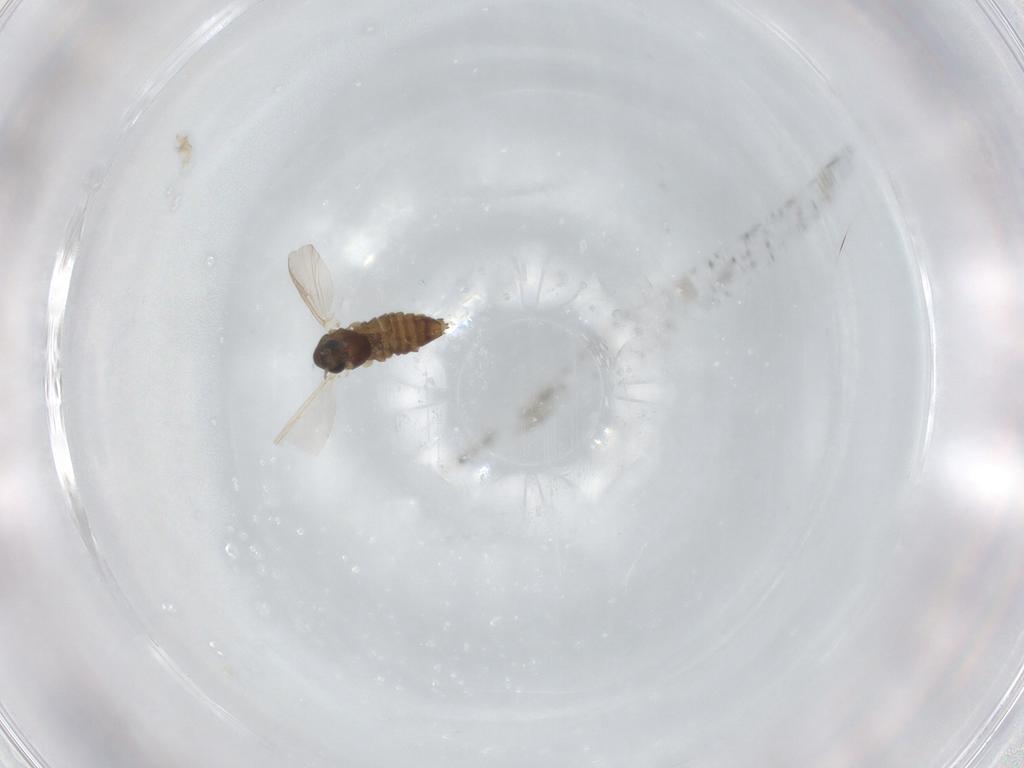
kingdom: Animalia
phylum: Arthropoda
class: Insecta
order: Diptera
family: Chironomidae
